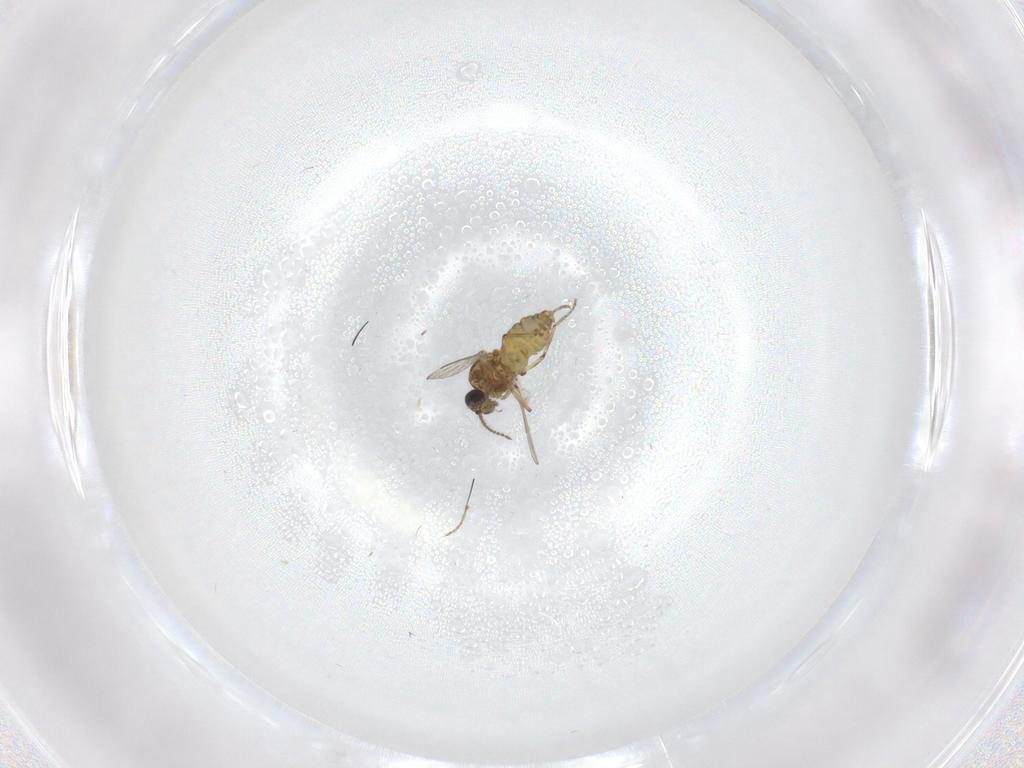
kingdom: Animalia
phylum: Arthropoda
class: Insecta
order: Diptera
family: Ceratopogonidae
